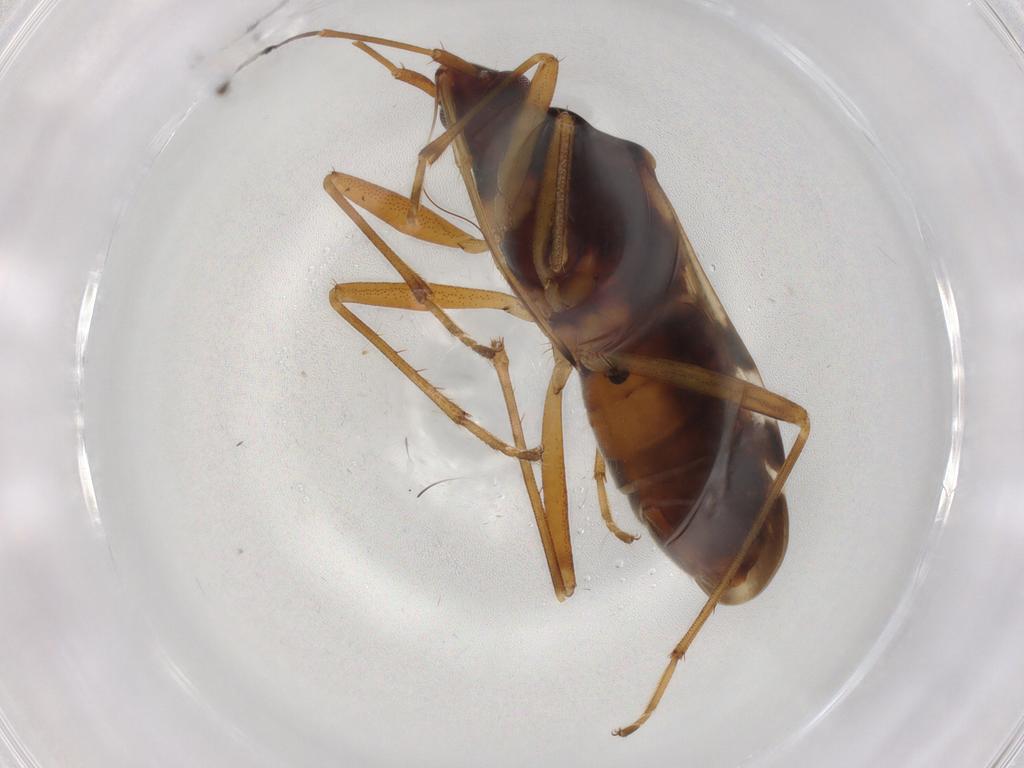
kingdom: Animalia
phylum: Arthropoda
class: Insecta
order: Hemiptera
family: Rhyparochromidae
